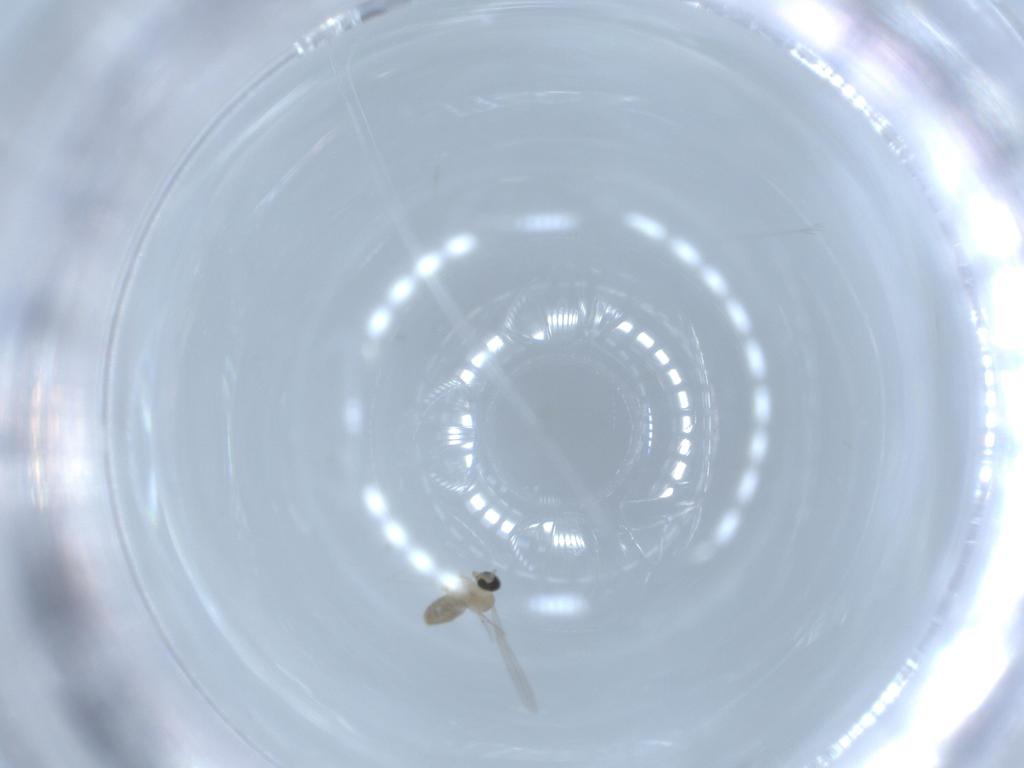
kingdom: Animalia
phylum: Arthropoda
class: Insecta
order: Diptera
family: Cecidomyiidae
